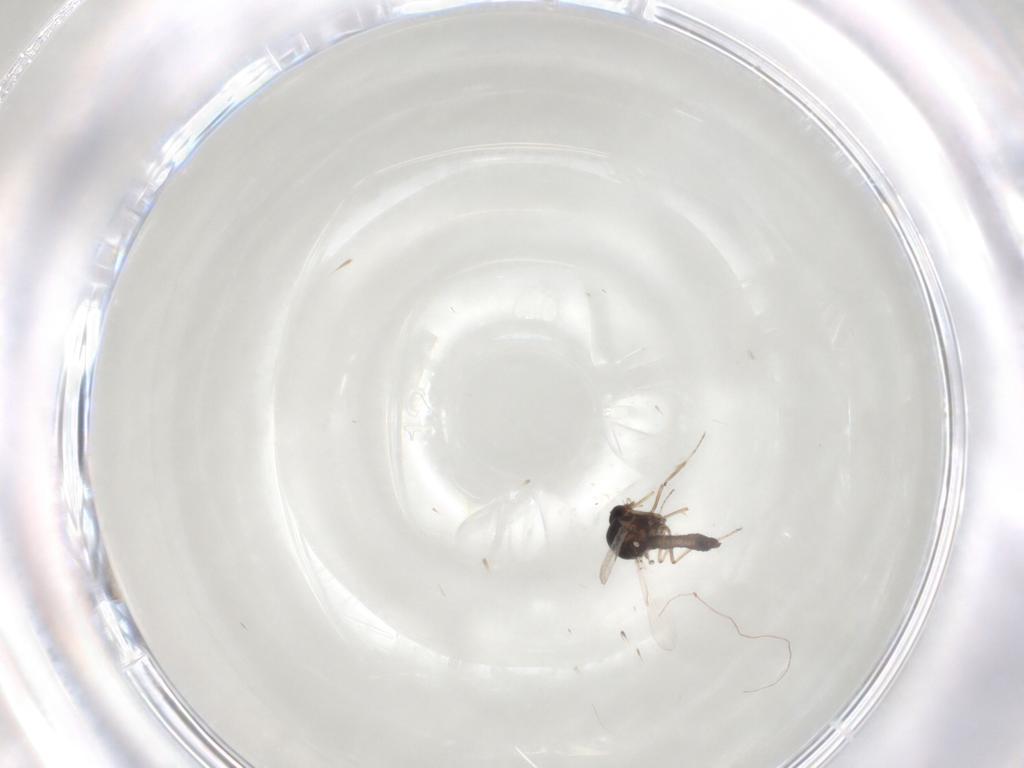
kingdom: Animalia
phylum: Arthropoda
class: Insecta
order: Diptera
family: Ceratopogonidae
